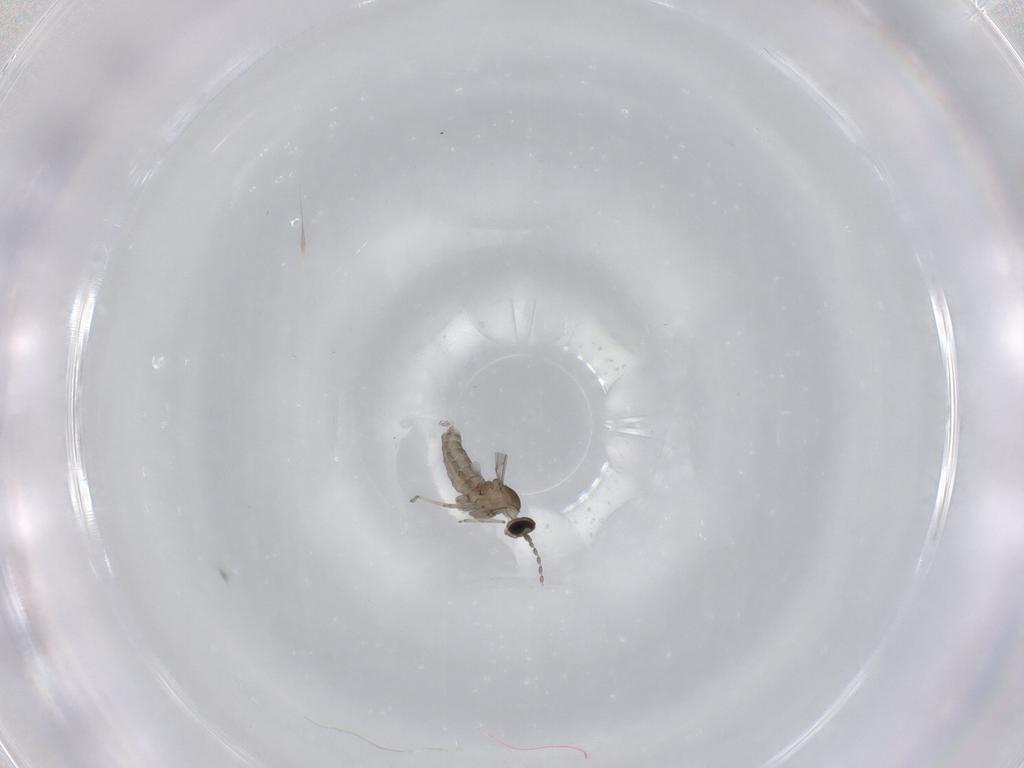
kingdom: Animalia
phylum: Arthropoda
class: Insecta
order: Diptera
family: Cecidomyiidae
